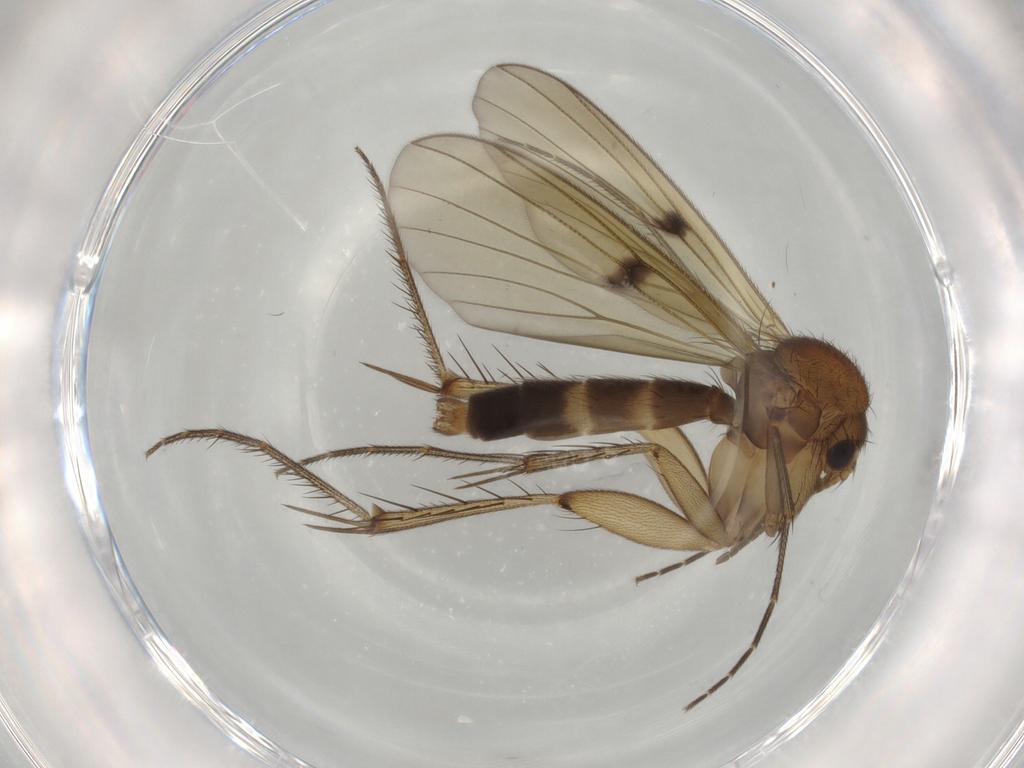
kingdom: Animalia
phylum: Arthropoda
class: Insecta
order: Diptera
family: Mycetophilidae
